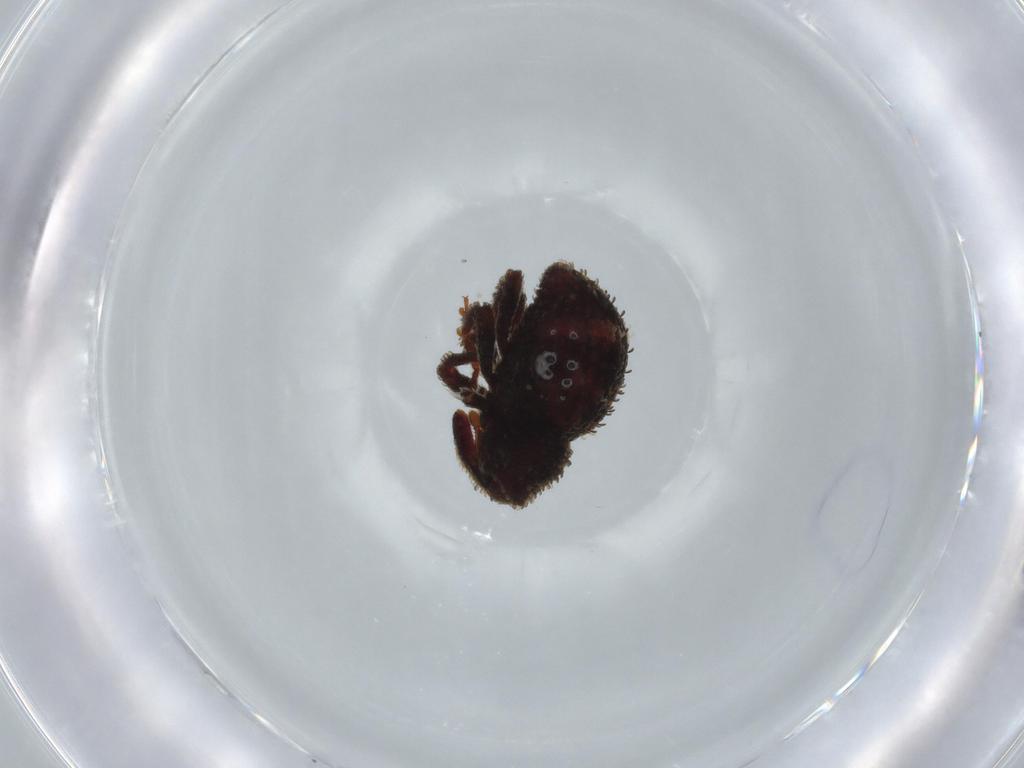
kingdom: Animalia
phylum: Arthropoda
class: Insecta
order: Coleoptera
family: Curculionidae
